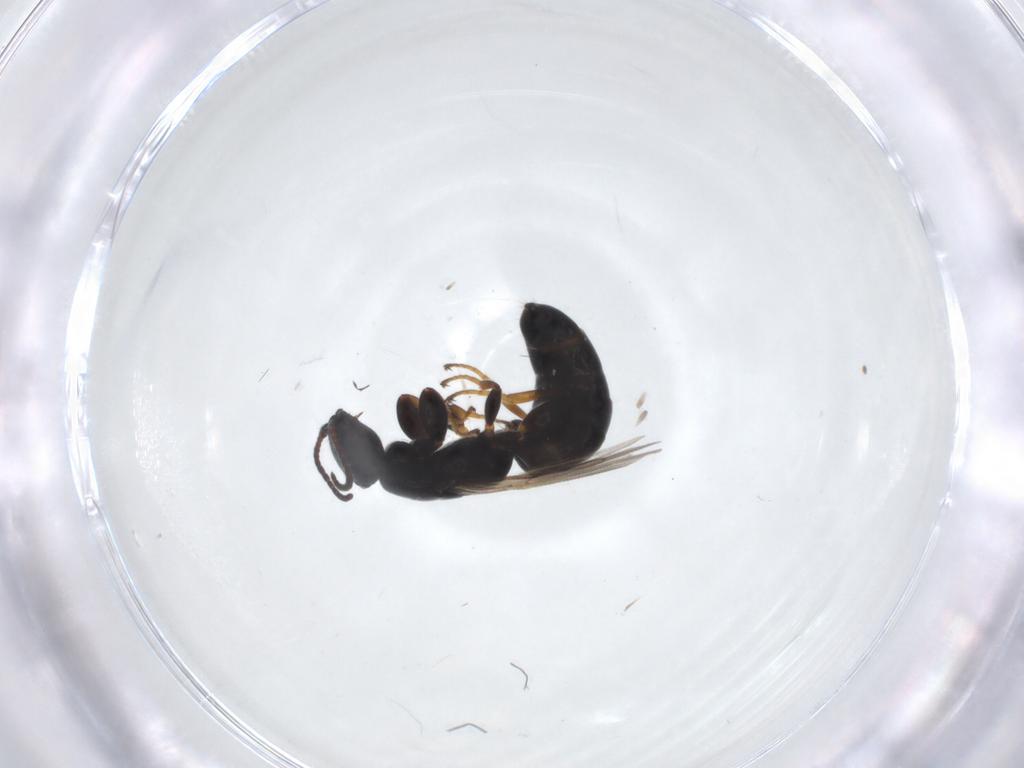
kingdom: Animalia
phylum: Arthropoda
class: Insecta
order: Hymenoptera
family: Bethylidae
